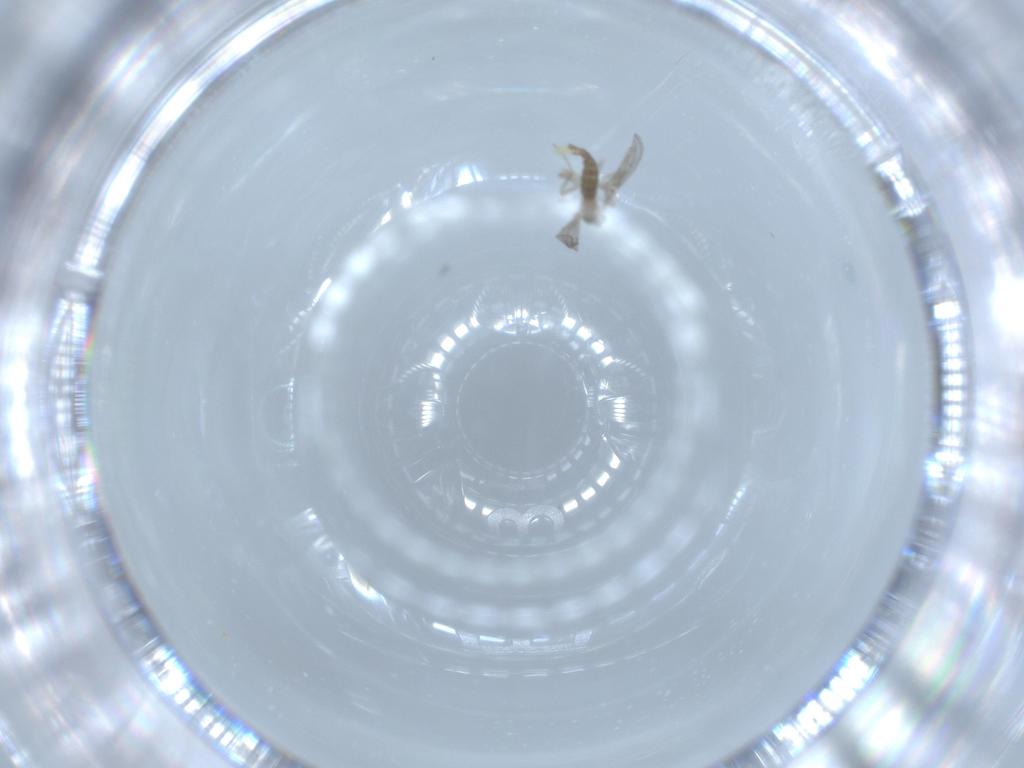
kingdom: Animalia
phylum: Arthropoda
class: Insecta
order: Diptera
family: Cecidomyiidae
